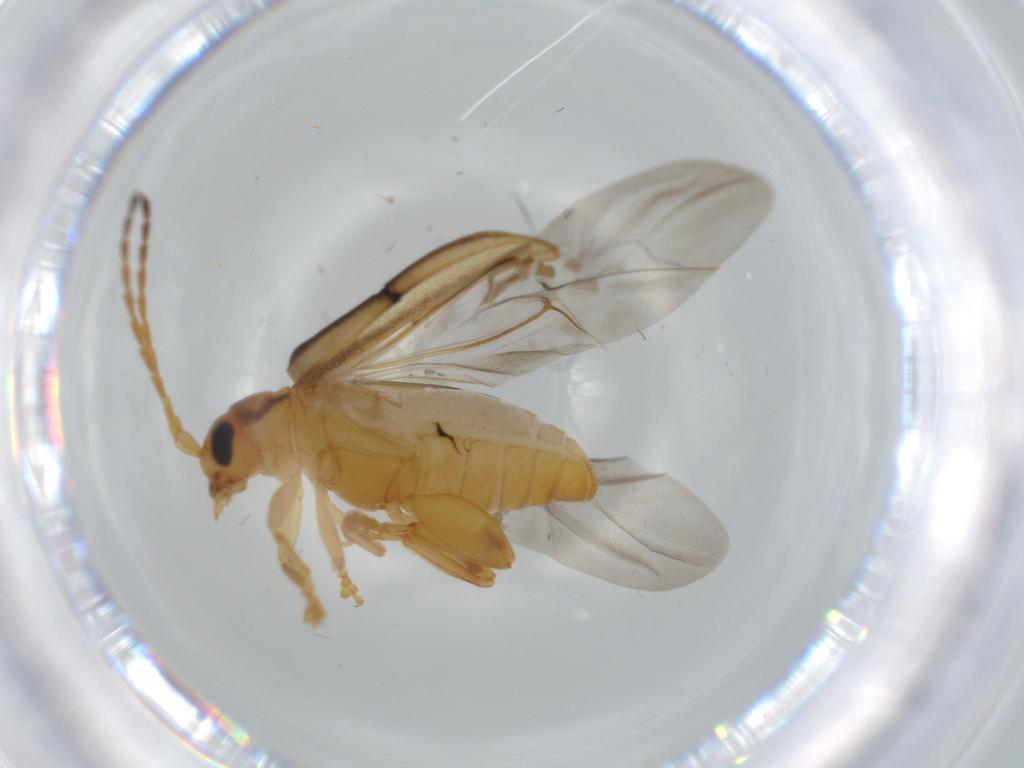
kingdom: Animalia
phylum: Arthropoda
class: Insecta
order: Coleoptera
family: Chrysomelidae
